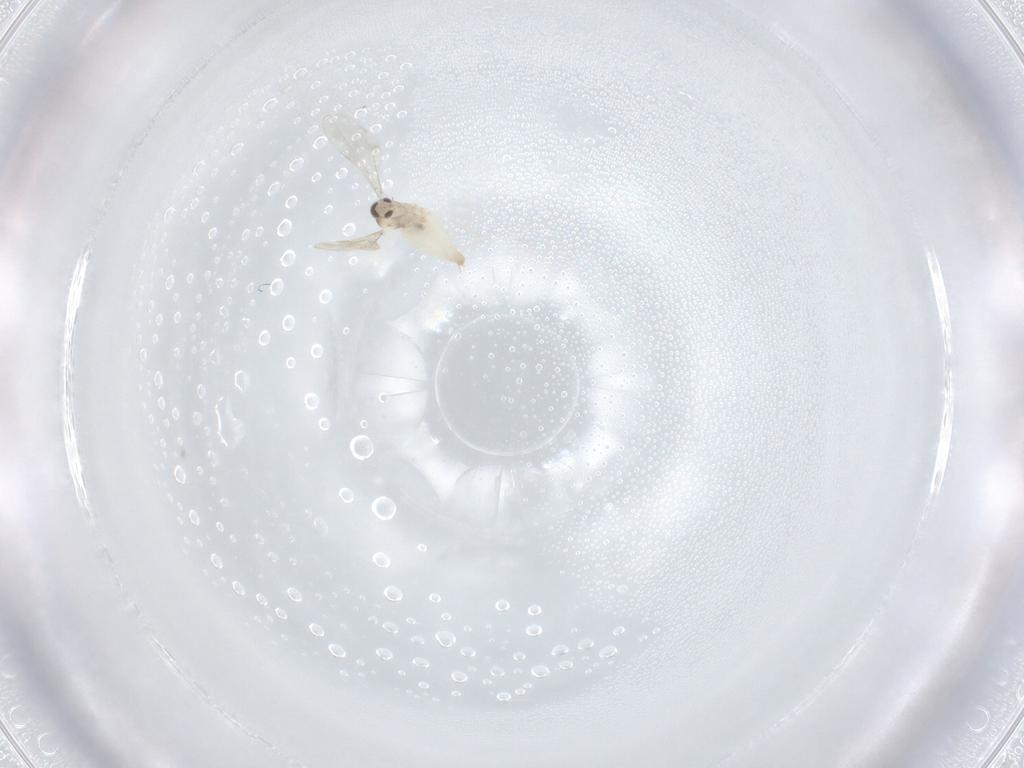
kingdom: Animalia
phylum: Arthropoda
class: Insecta
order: Diptera
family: Cecidomyiidae
